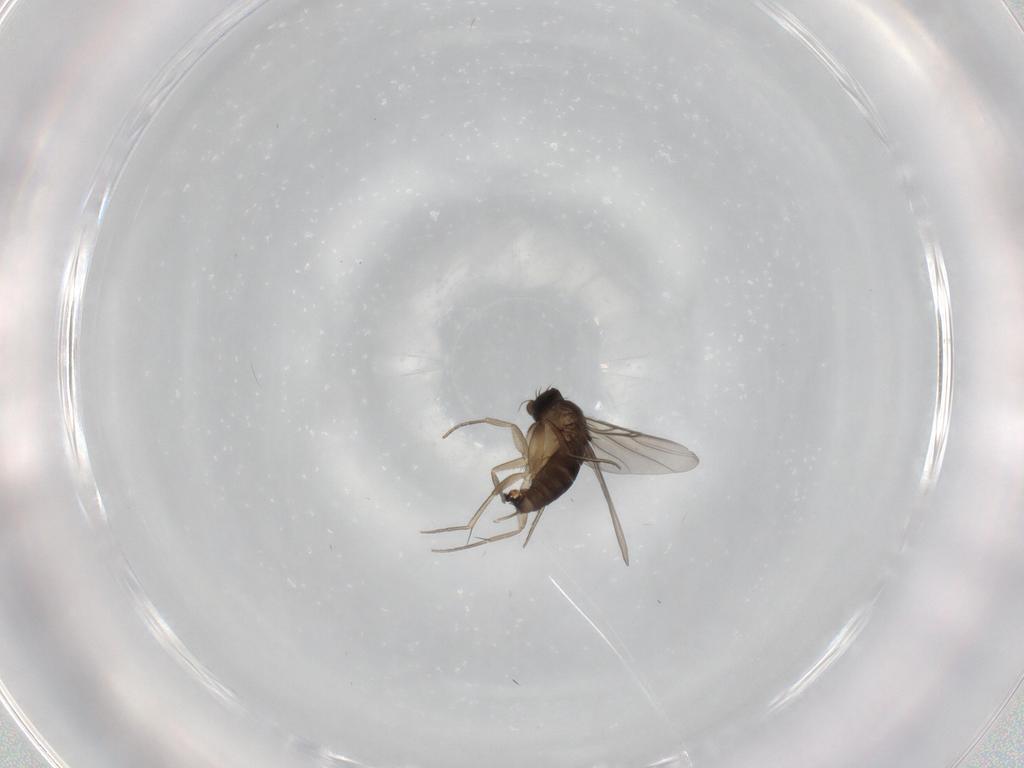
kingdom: Animalia
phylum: Arthropoda
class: Insecta
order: Diptera
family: Phoridae
